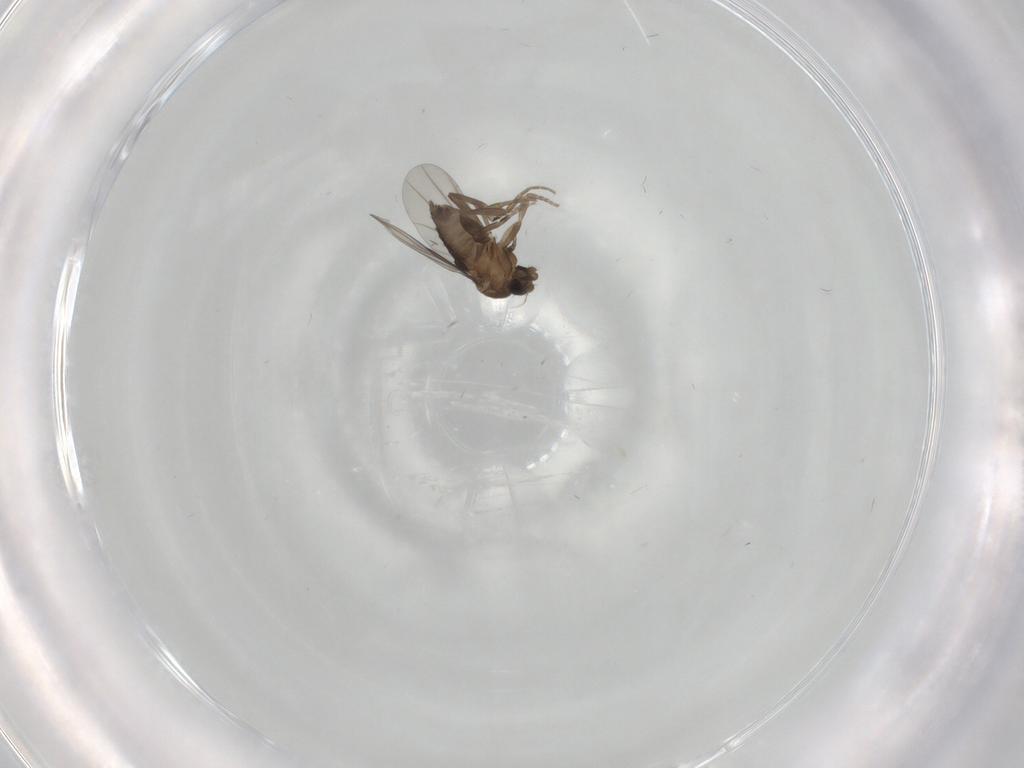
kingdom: Animalia
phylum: Arthropoda
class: Insecta
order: Diptera
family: Phoridae
